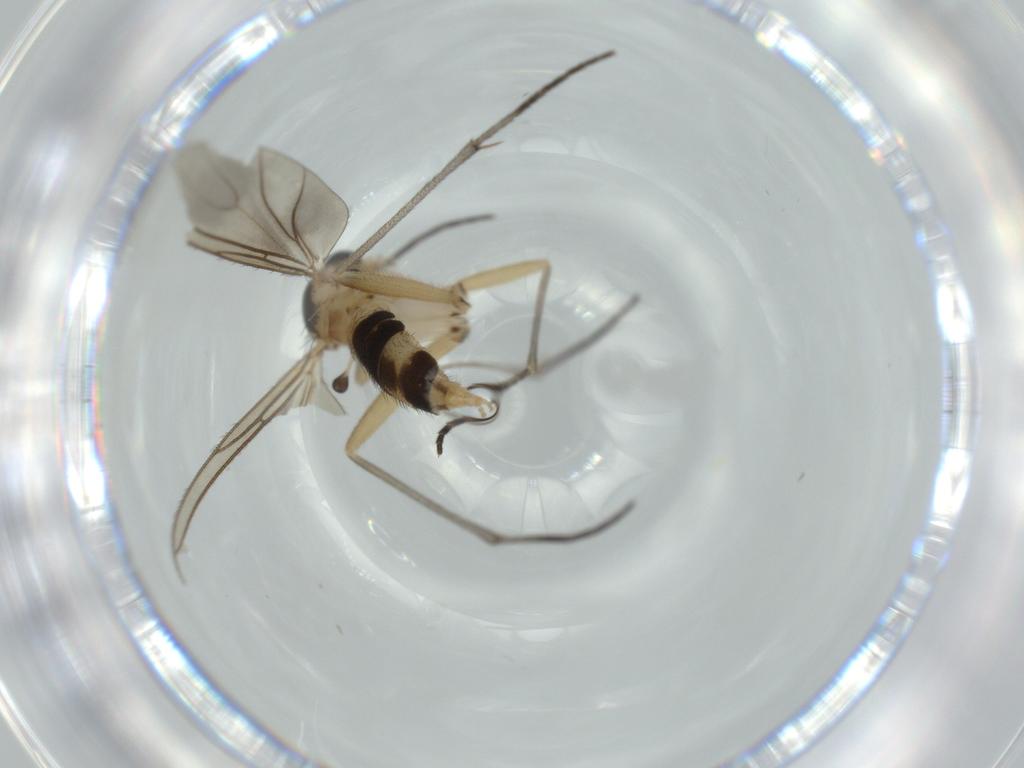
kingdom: Animalia
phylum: Arthropoda
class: Insecta
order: Diptera
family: Sciaridae
